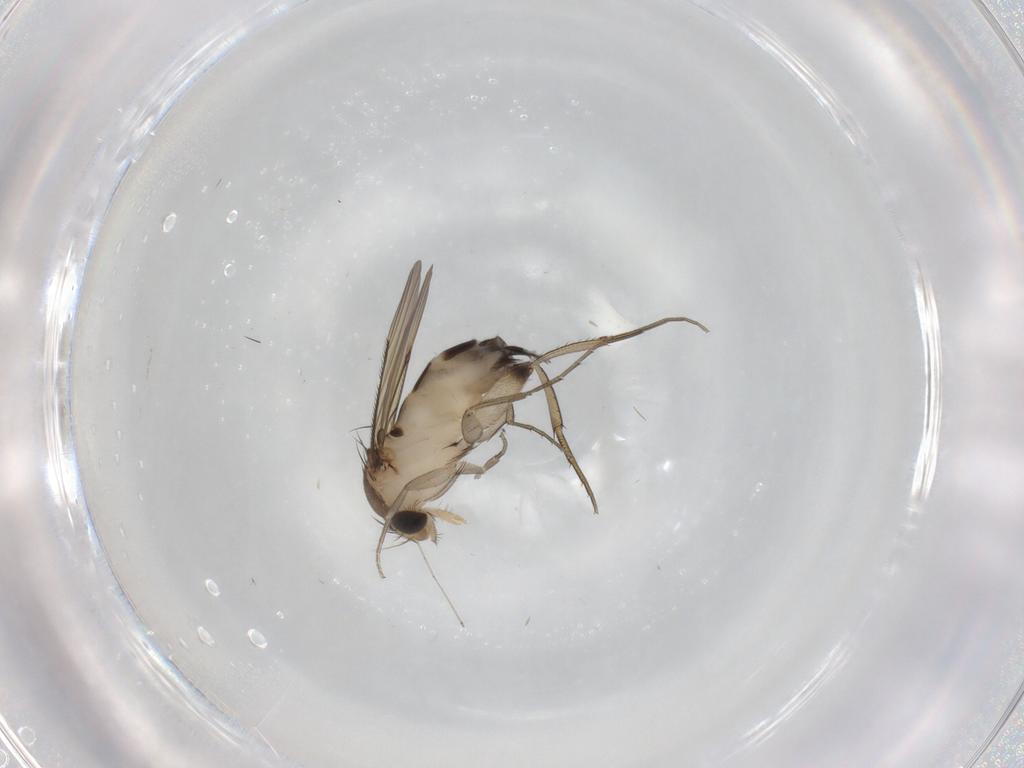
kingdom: Animalia
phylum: Arthropoda
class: Insecta
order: Diptera
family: Phoridae
